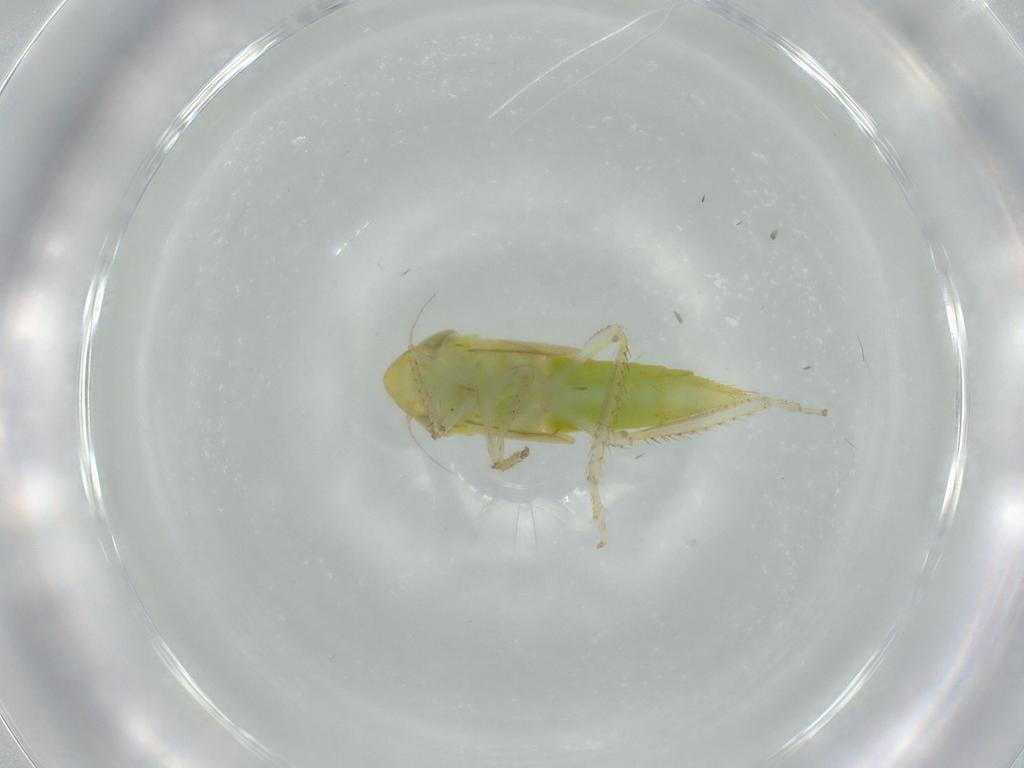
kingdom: Animalia
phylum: Arthropoda
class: Insecta
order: Hemiptera
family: Cicadellidae
